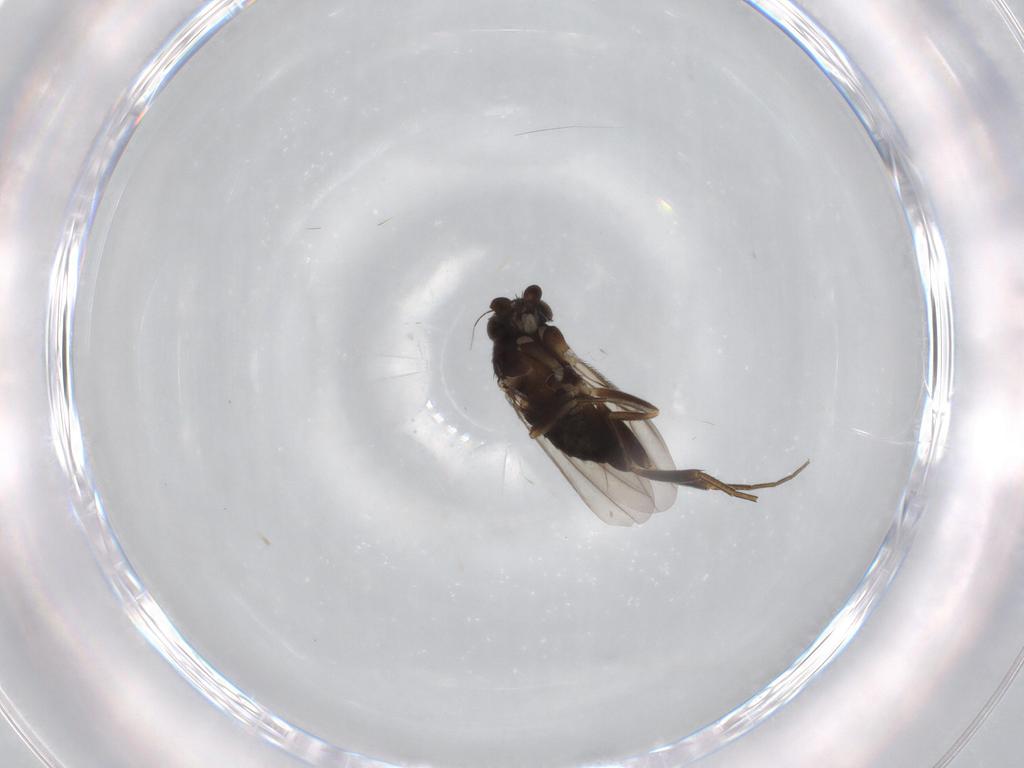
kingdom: Animalia
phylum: Arthropoda
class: Insecta
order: Diptera
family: Phoridae
